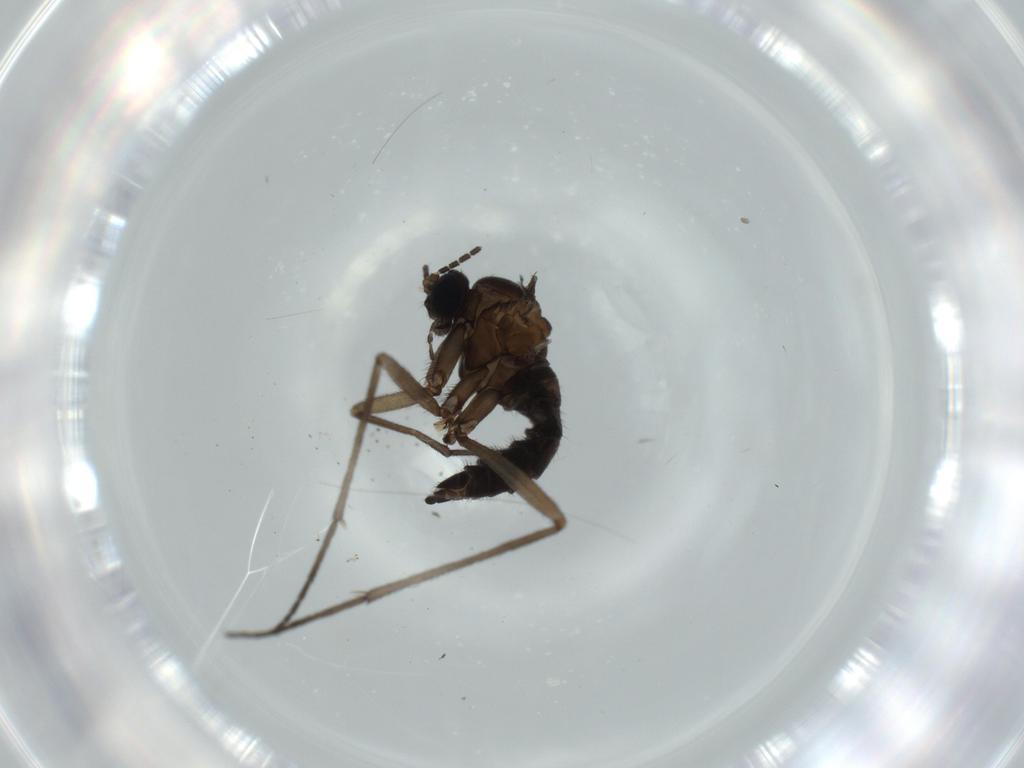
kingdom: Animalia
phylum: Arthropoda
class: Insecta
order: Diptera
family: Sciaridae
